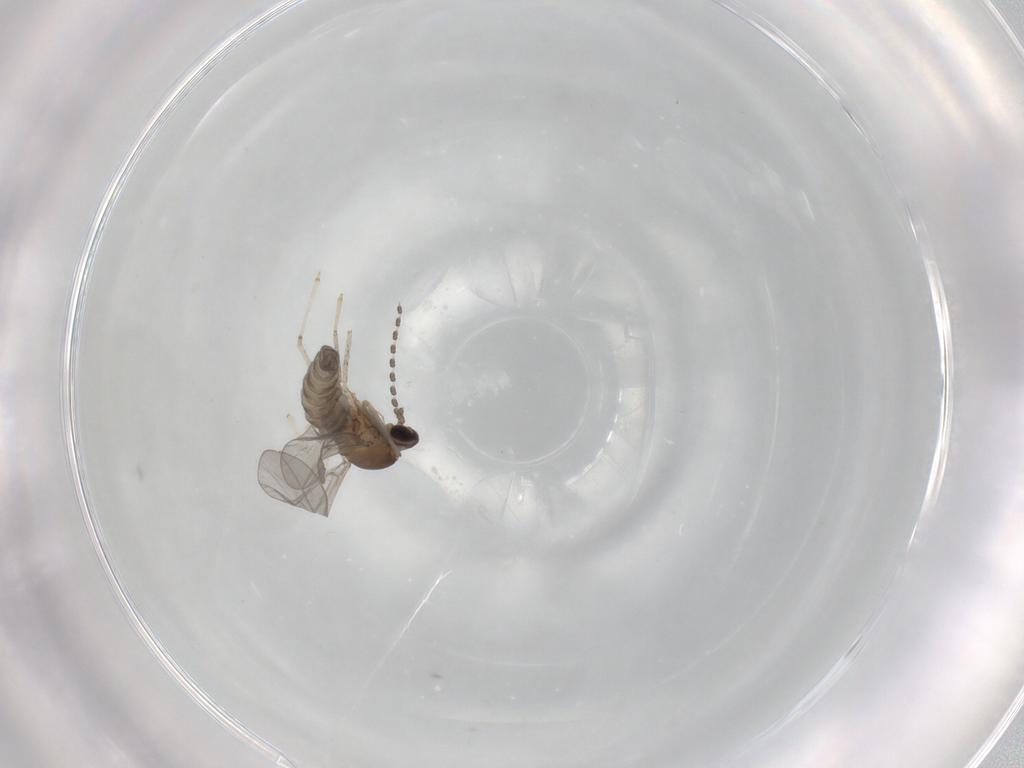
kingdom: Animalia
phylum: Arthropoda
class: Insecta
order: Diptera
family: Cecidomyiidae
